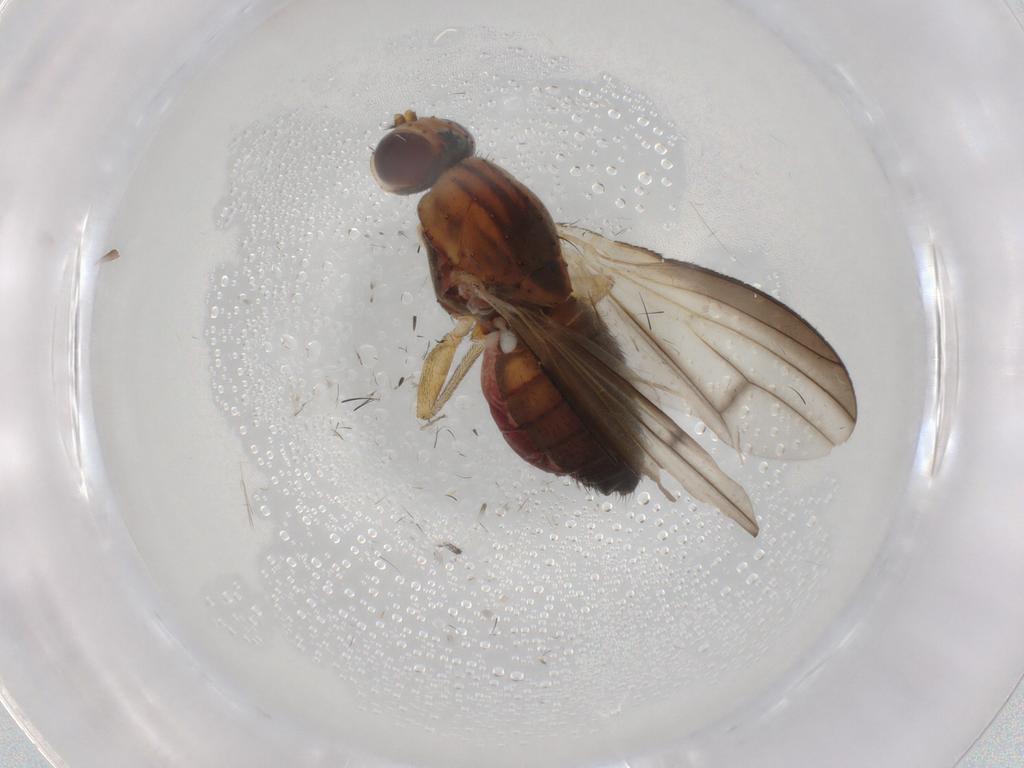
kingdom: Animalia
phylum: Arthropoda
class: Insecta
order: Diptera
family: Heleomyzidae
